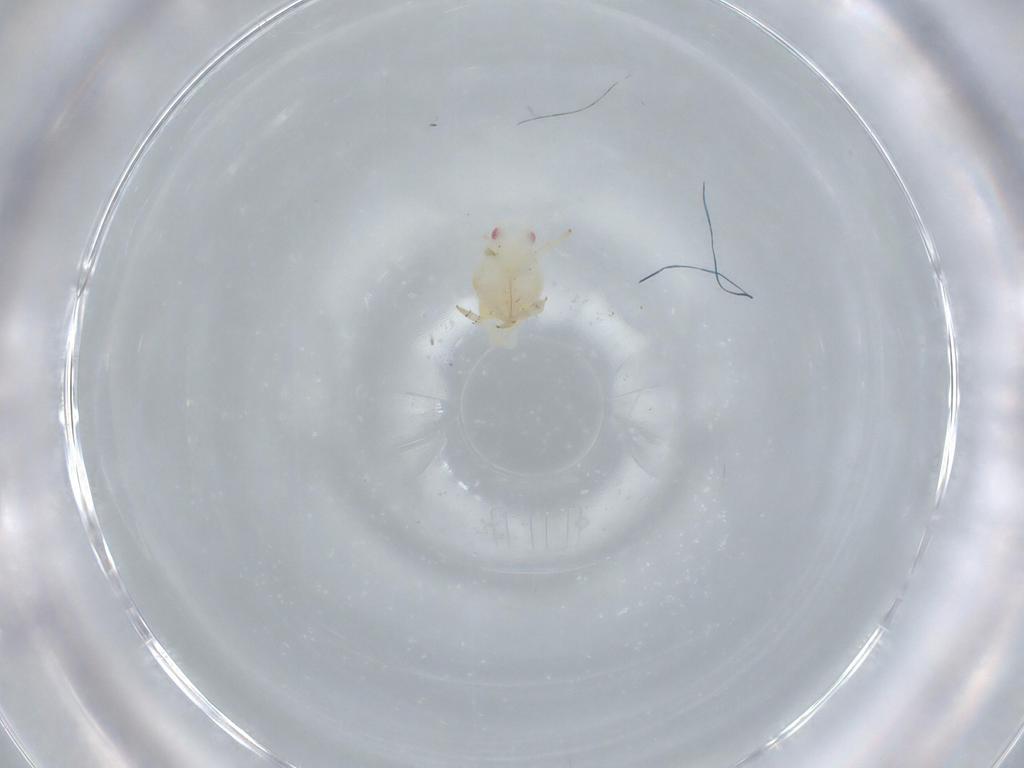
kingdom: Animalia
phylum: Arthropoda
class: Insecta
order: Hemiptera
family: Flatidae
